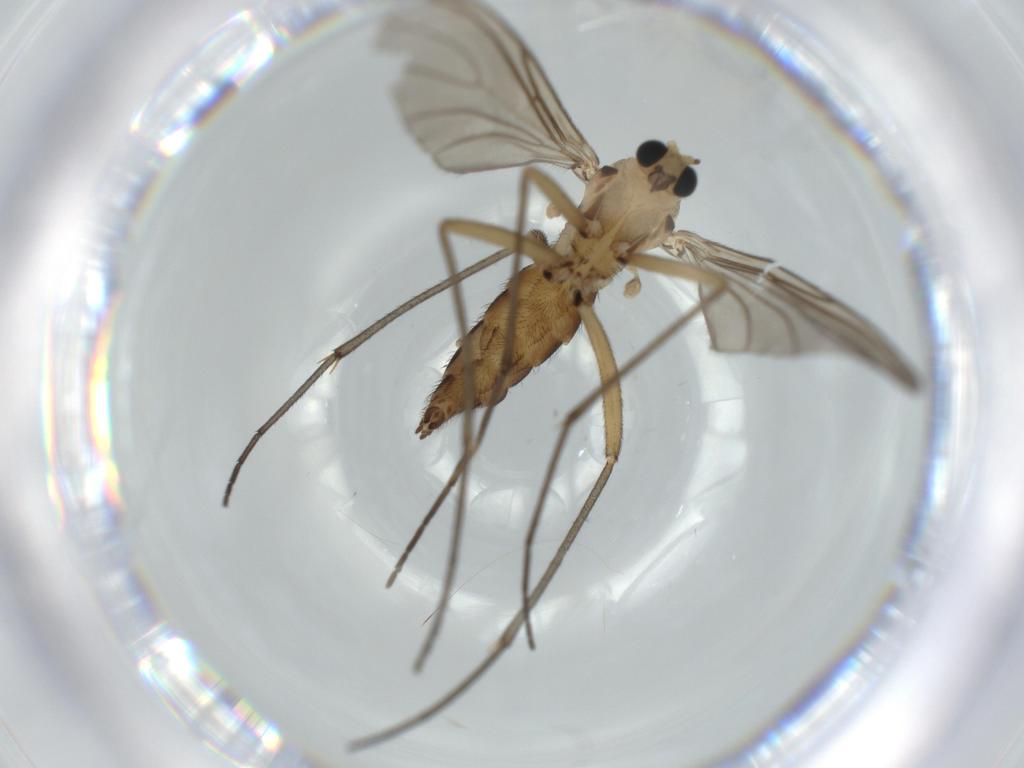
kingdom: Animalia
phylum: Arthropoda
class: Insecta
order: Diptera
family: Sciaridae
